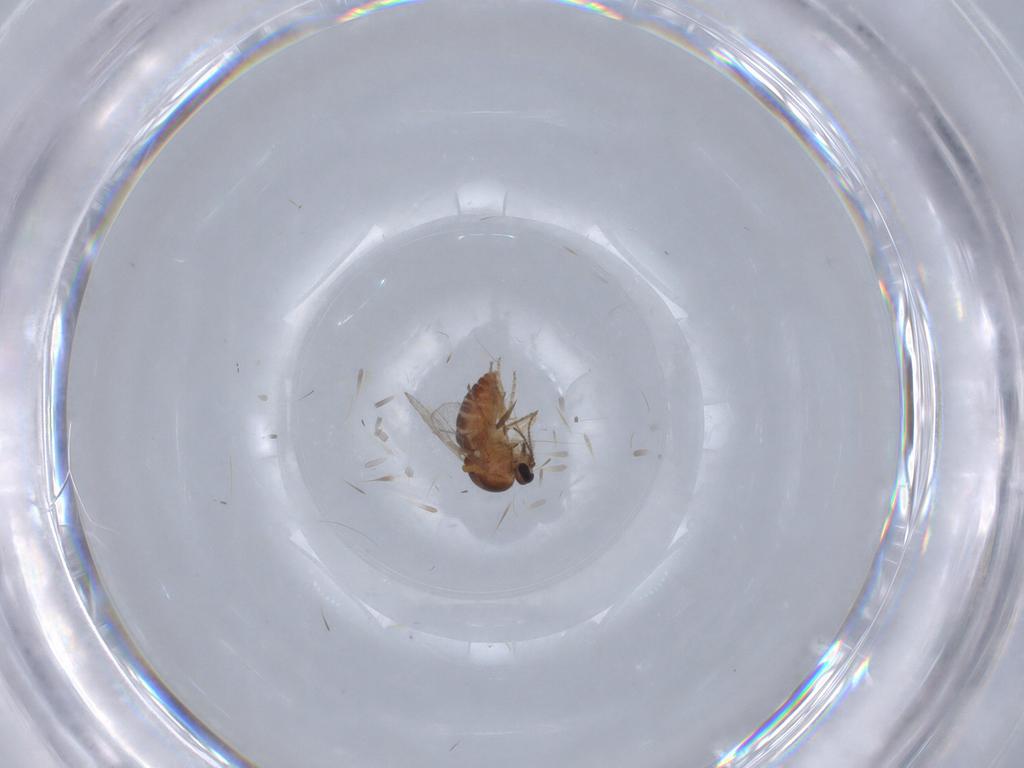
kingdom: Animalia
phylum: Arthropoda
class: Insecta
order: Diptera
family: Ceratopogonidae
